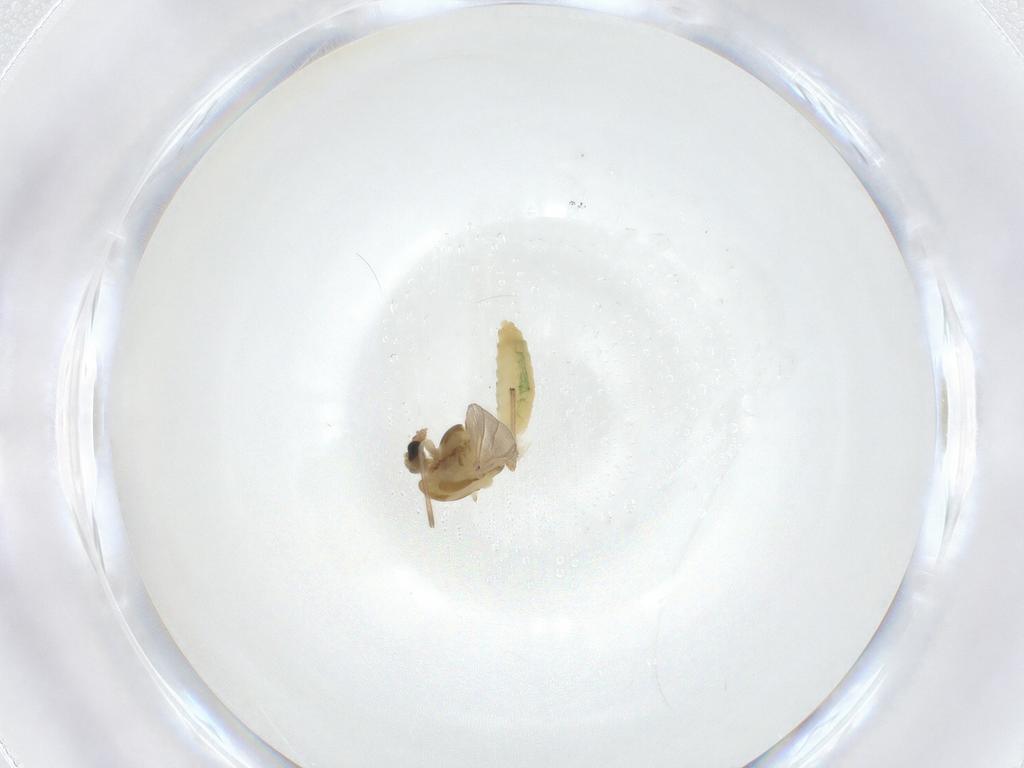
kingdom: Animalia
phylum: Arthropoda
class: Insecta
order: Diptera
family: Chironomidae
